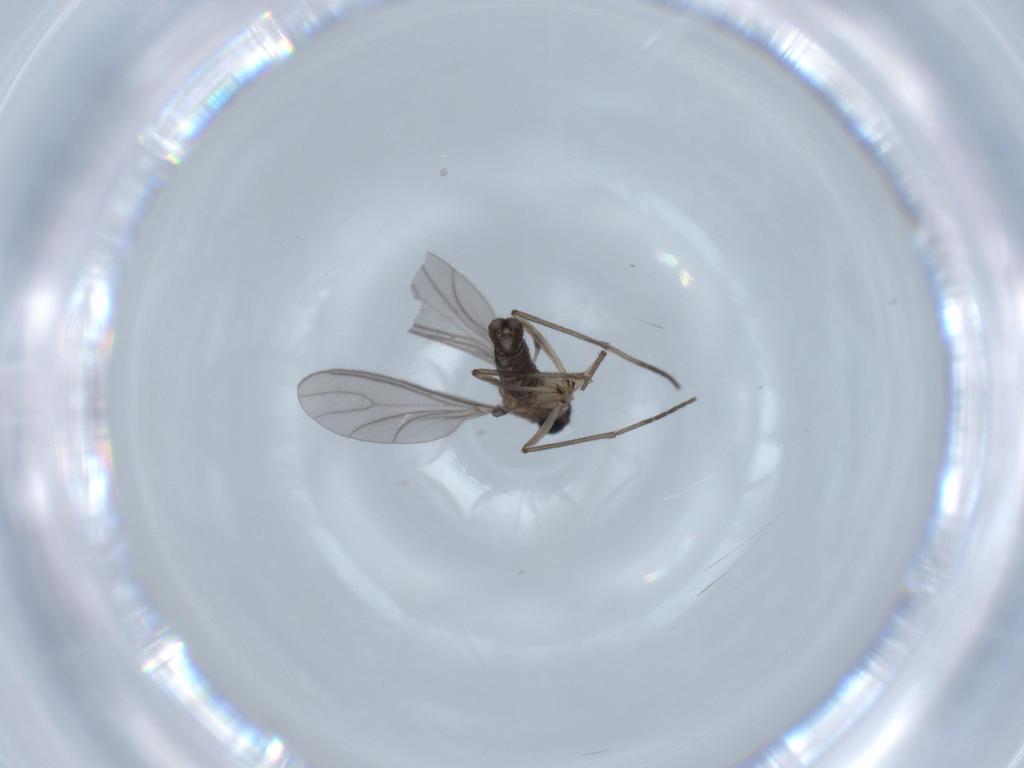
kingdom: Animalia
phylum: Arthropoda
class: Insecta
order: Diptera
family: Sciaridae
